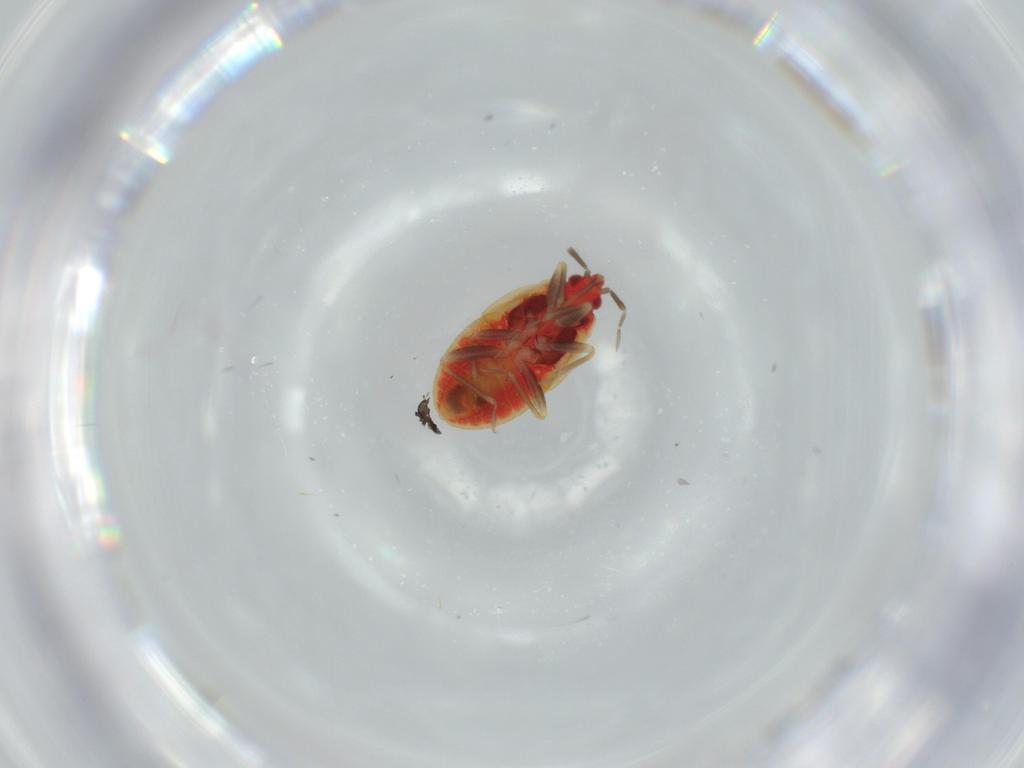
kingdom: Animalia
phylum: Arthropoda
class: Insecta
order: Hemiptera
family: Anthocoridae
